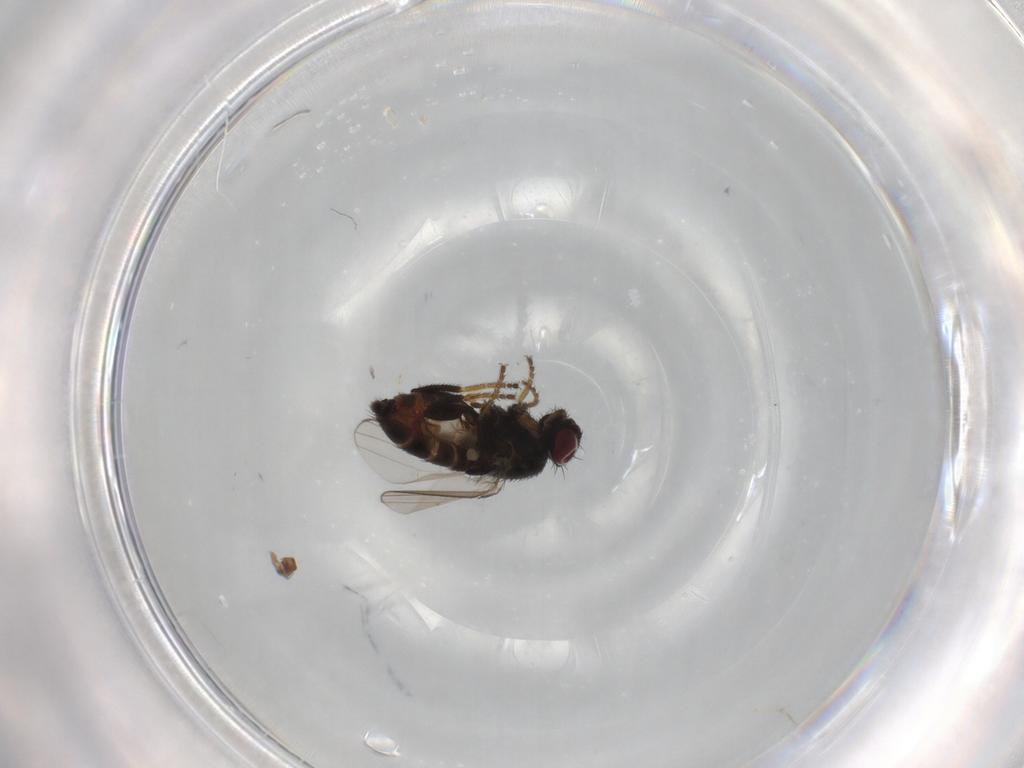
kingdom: Animalia
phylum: Arthropoda
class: Insecta
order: Diptera
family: Milichiidae
